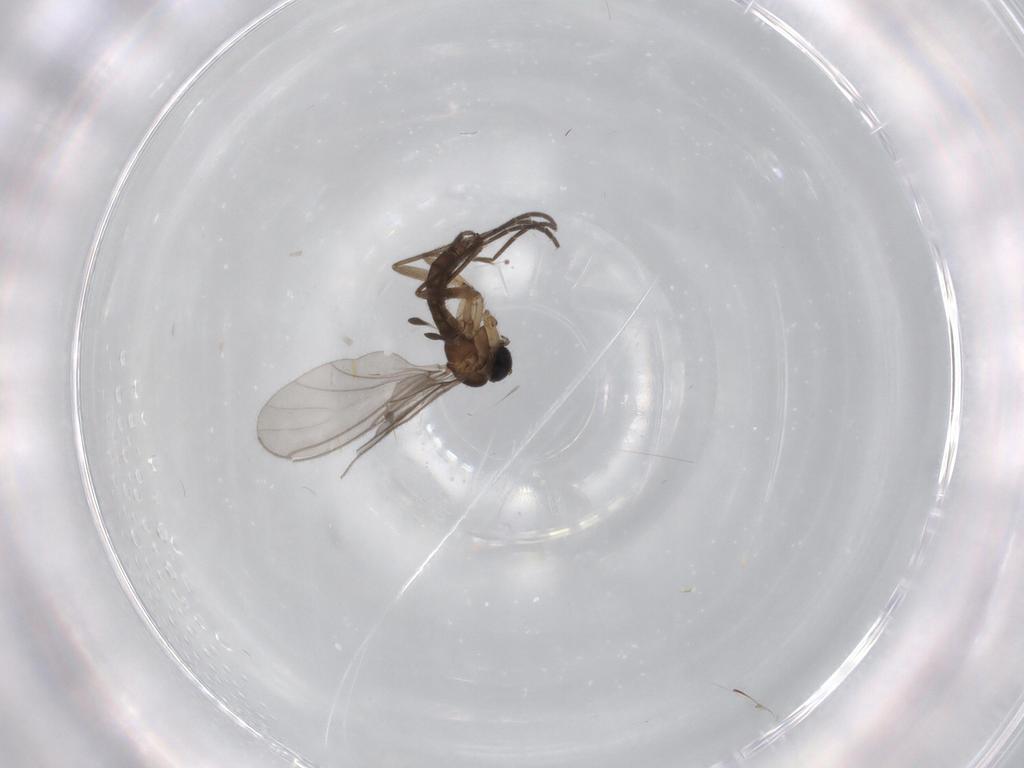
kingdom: Animalia
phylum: Arthropoda
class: Insecta
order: Diptera
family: Sciaridae
